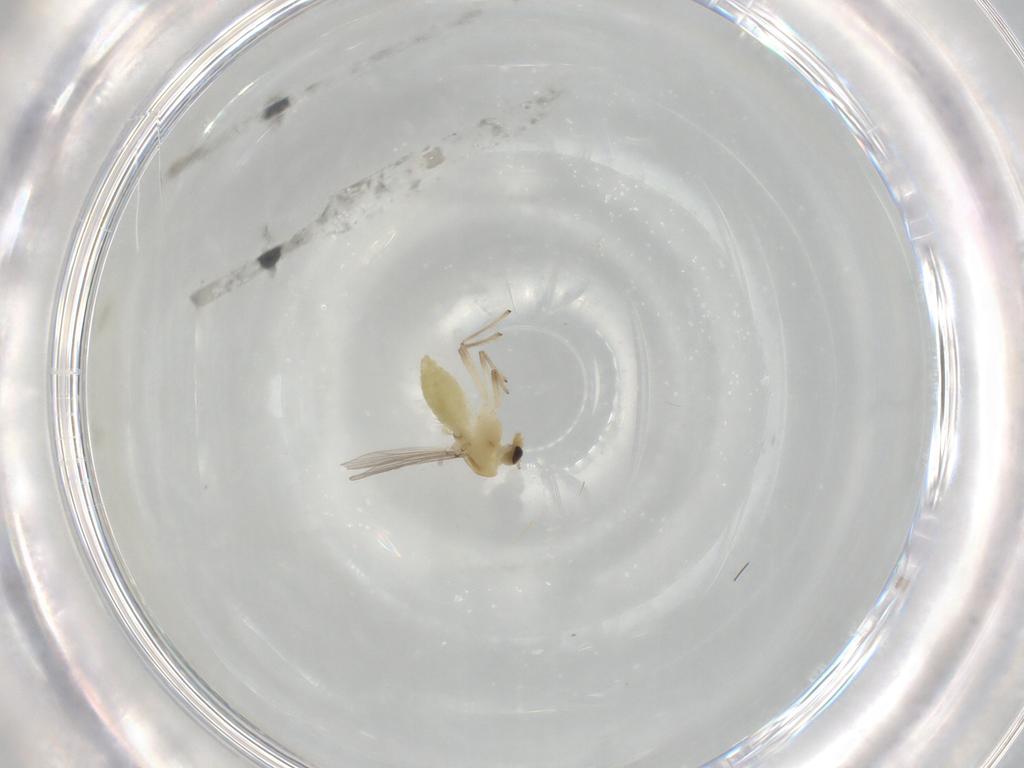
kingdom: Animalia
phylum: Arthropoda
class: Insecta
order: Diptera
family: Chironomidae
